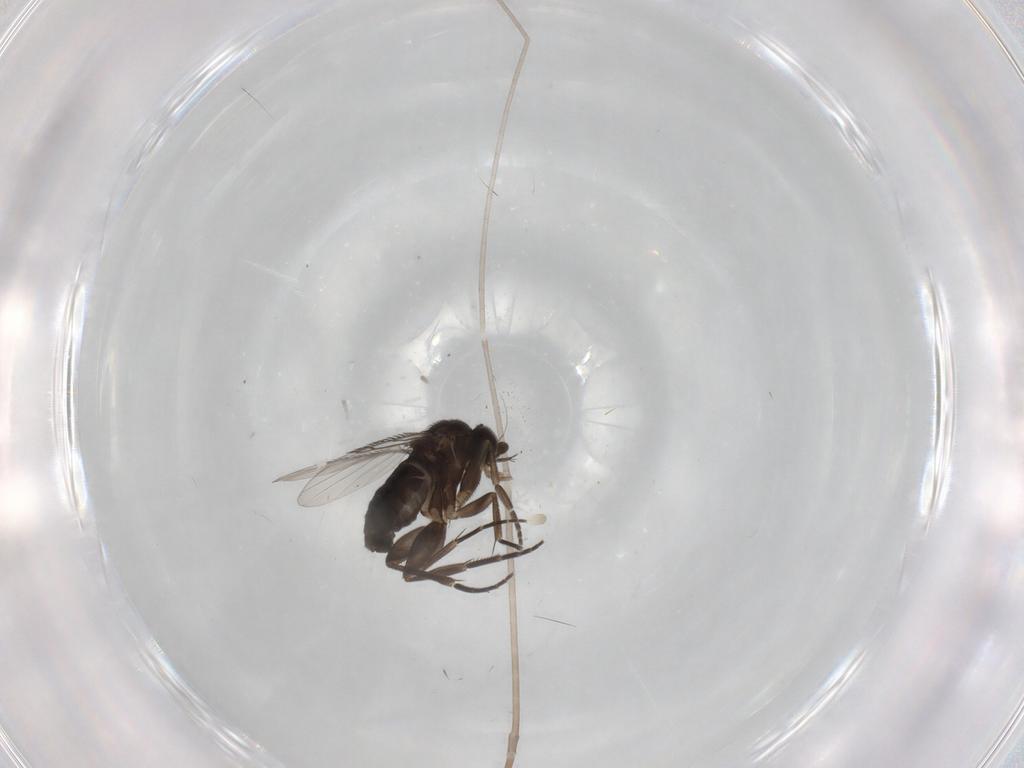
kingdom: Animalia
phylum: Arthropoda
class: Insecta
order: Diptera
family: Phoridae
